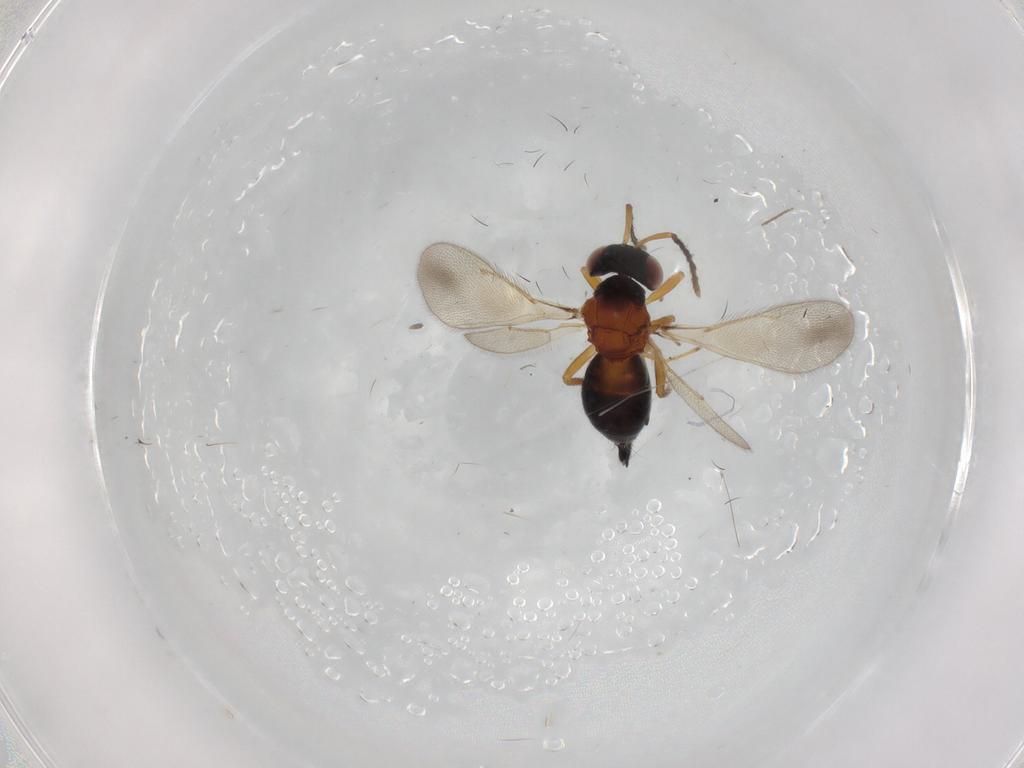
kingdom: Animalia
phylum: Arthropoda
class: Insecta
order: Hymenoptera
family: Eulophidae
